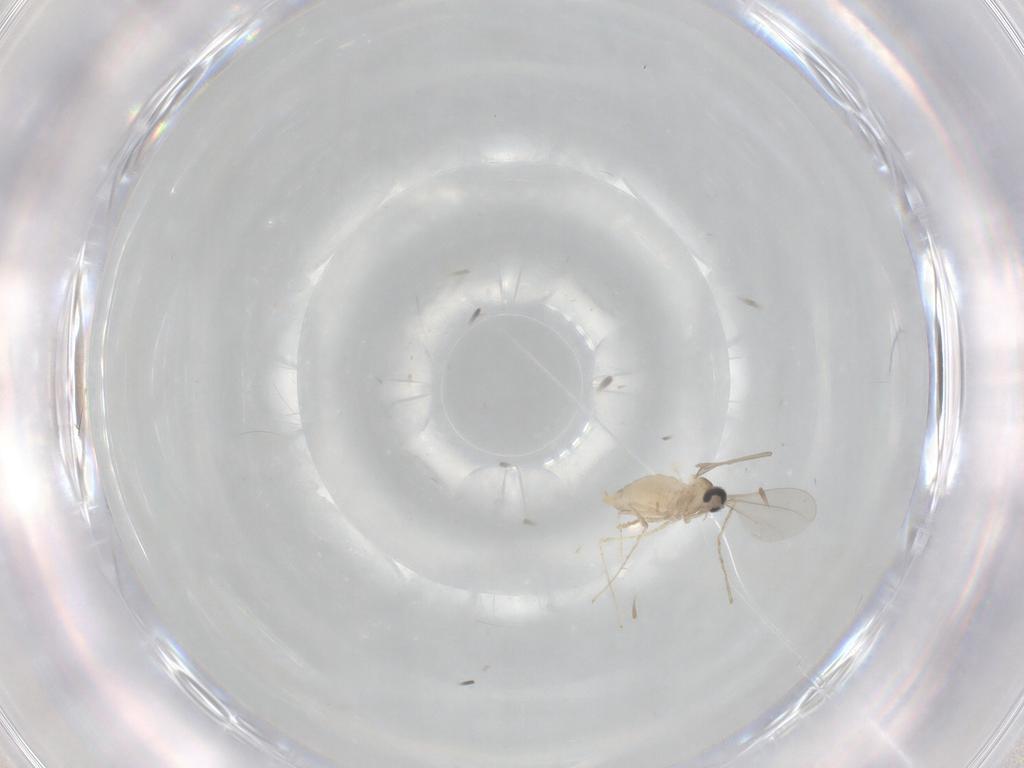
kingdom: Animalia
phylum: Arthropoda
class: Insecta
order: Diptera
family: Cecidomyiidae
